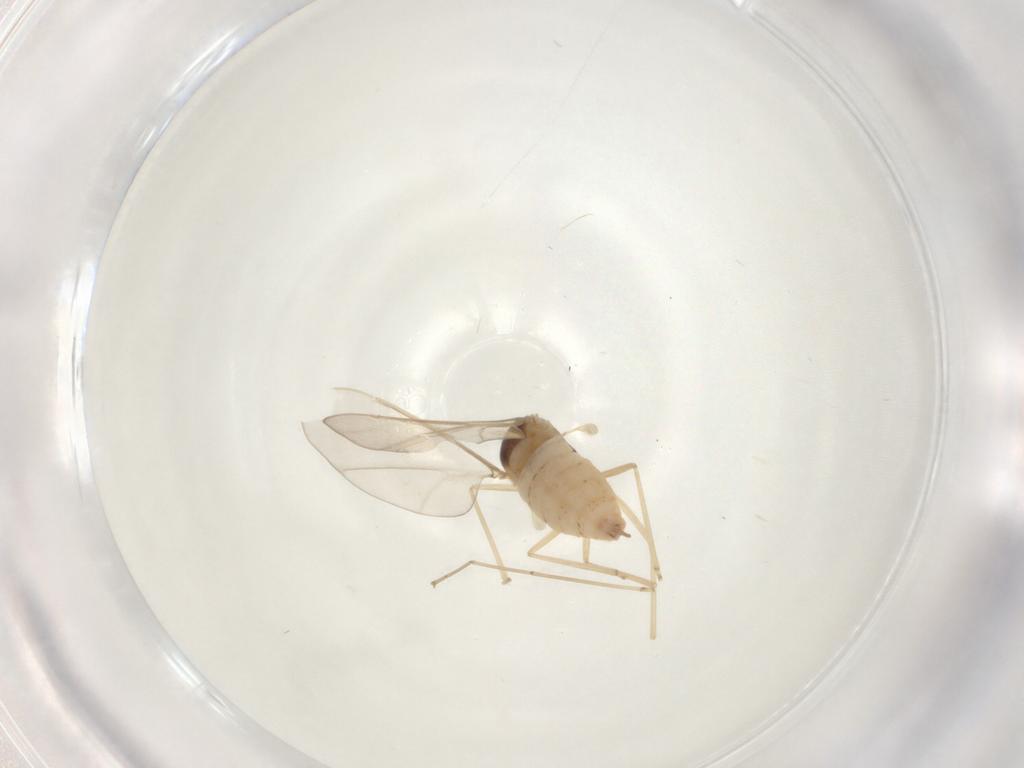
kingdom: Animalia
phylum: Arthropoda
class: Insecta
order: Diptera
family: Cecidomyiidae
